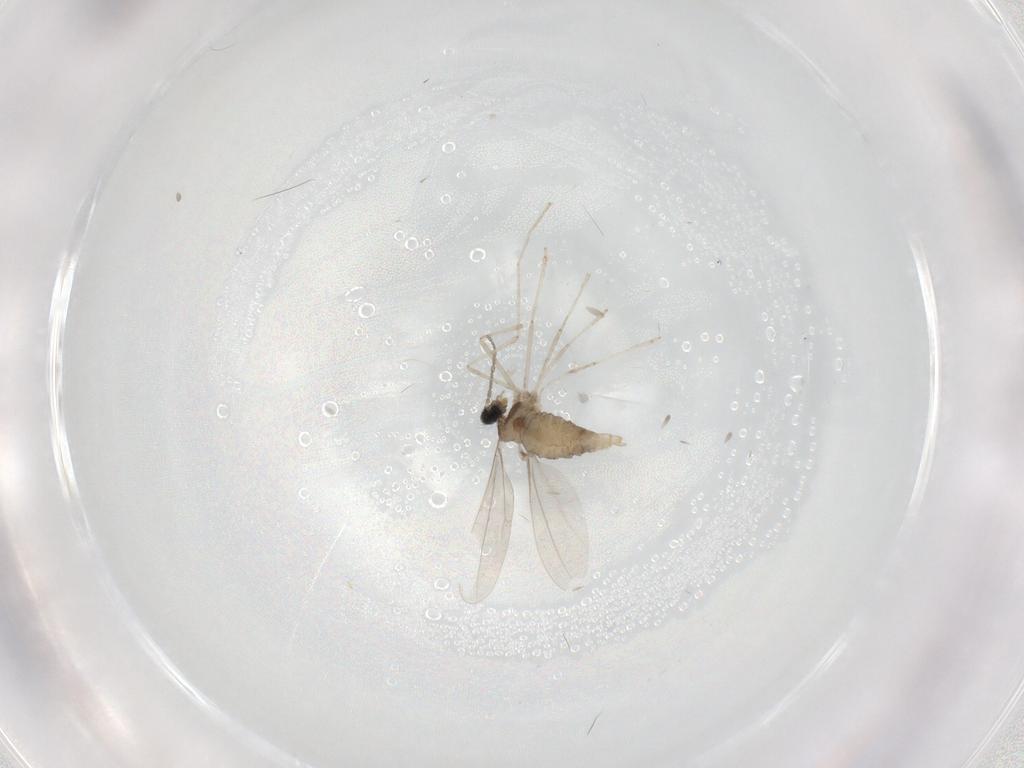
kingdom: Animalia
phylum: Arthropoda
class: Insecta
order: Diptera
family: Cecidomyiidae
